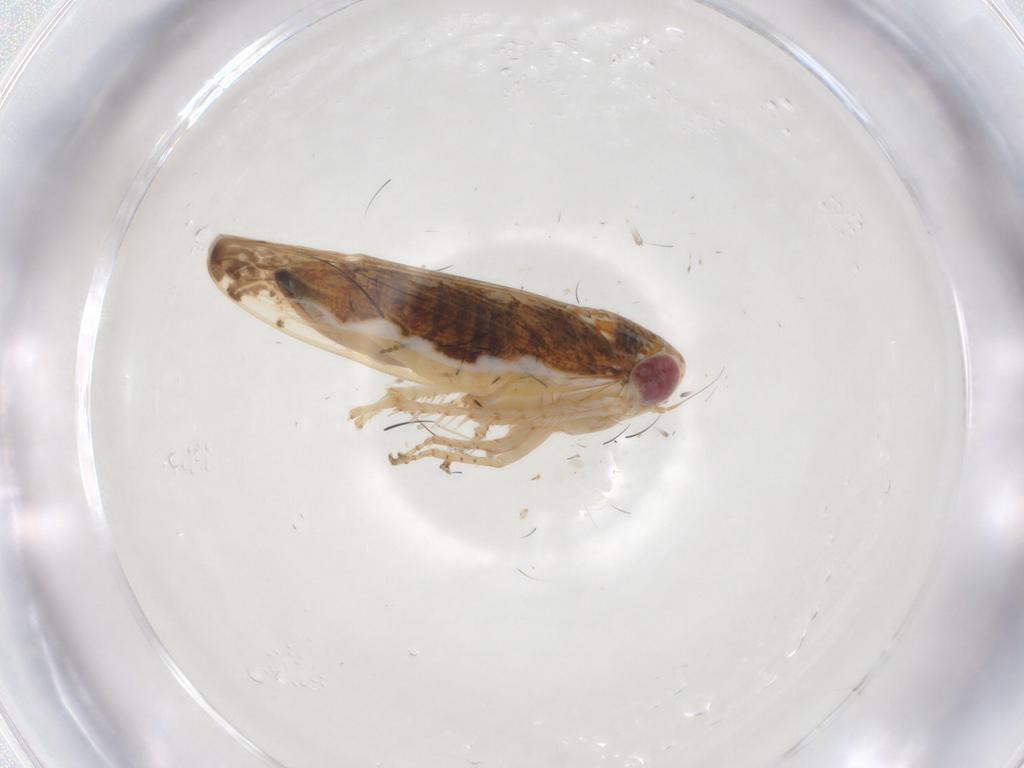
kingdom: Animalia
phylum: Arthropoda
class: Insecta
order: Hemiptera
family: Cicadellidae
